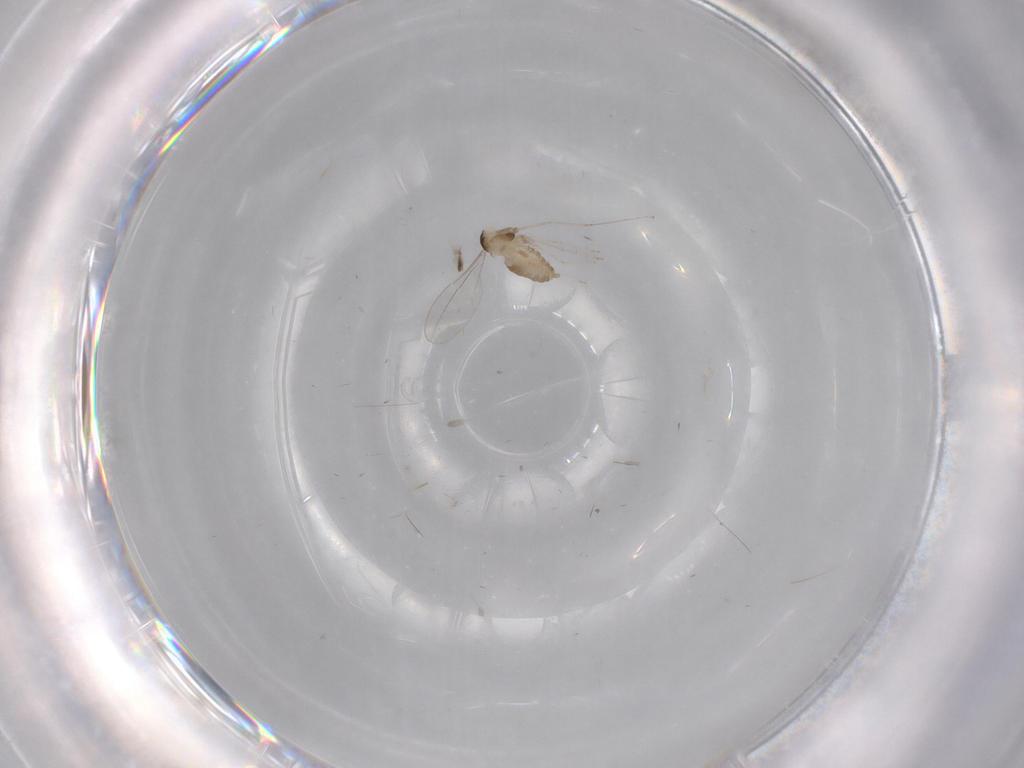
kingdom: Animalia
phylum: Arthropoda
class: Insecta
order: Diptera
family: Cecidomyiidae
